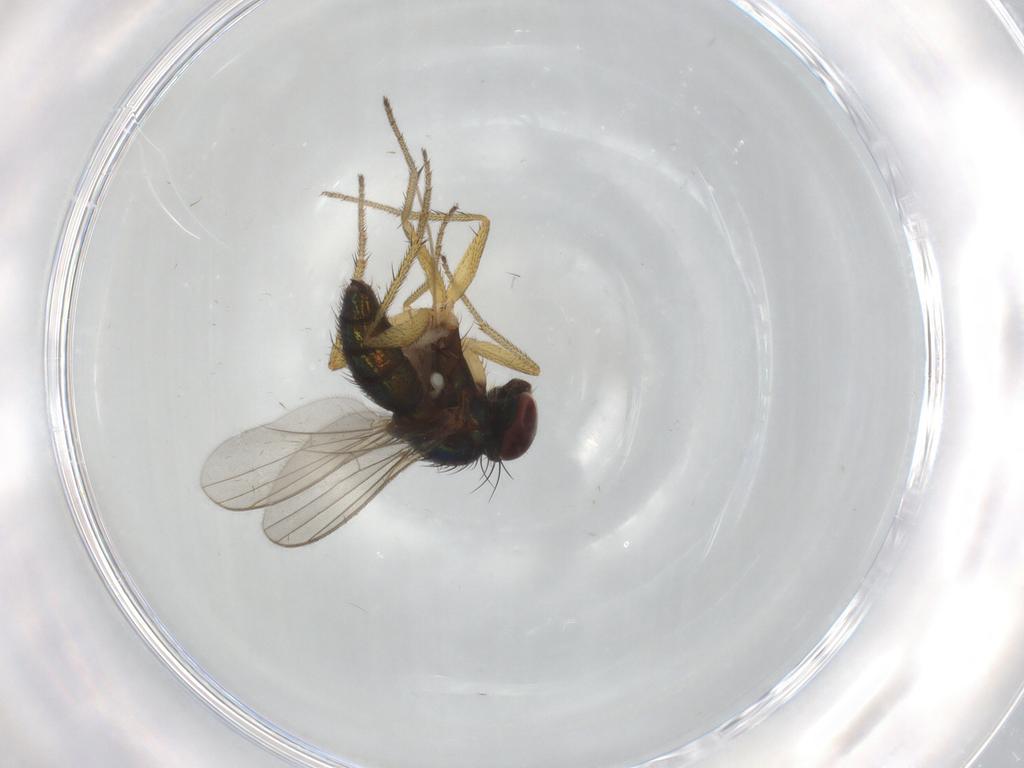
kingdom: Animalia
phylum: Arthropoda
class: Insecta
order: Diptera
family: Dolichopodidae
